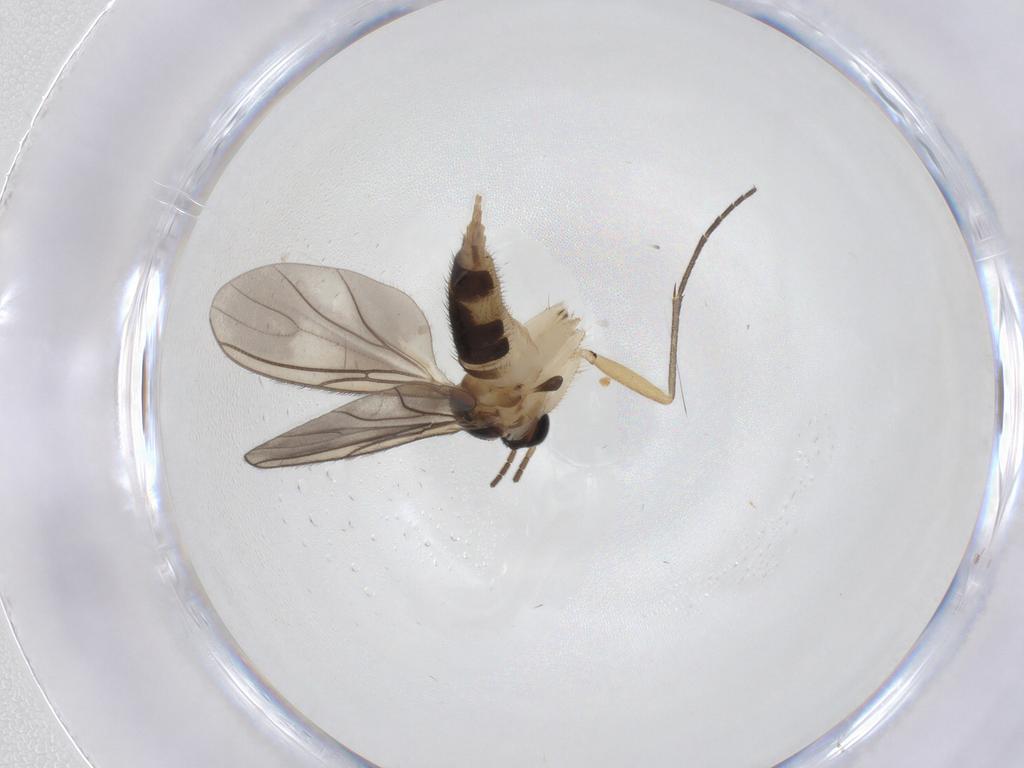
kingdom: Animalia
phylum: Arthropoda
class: Insecta
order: Diptera
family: Sciaridae
